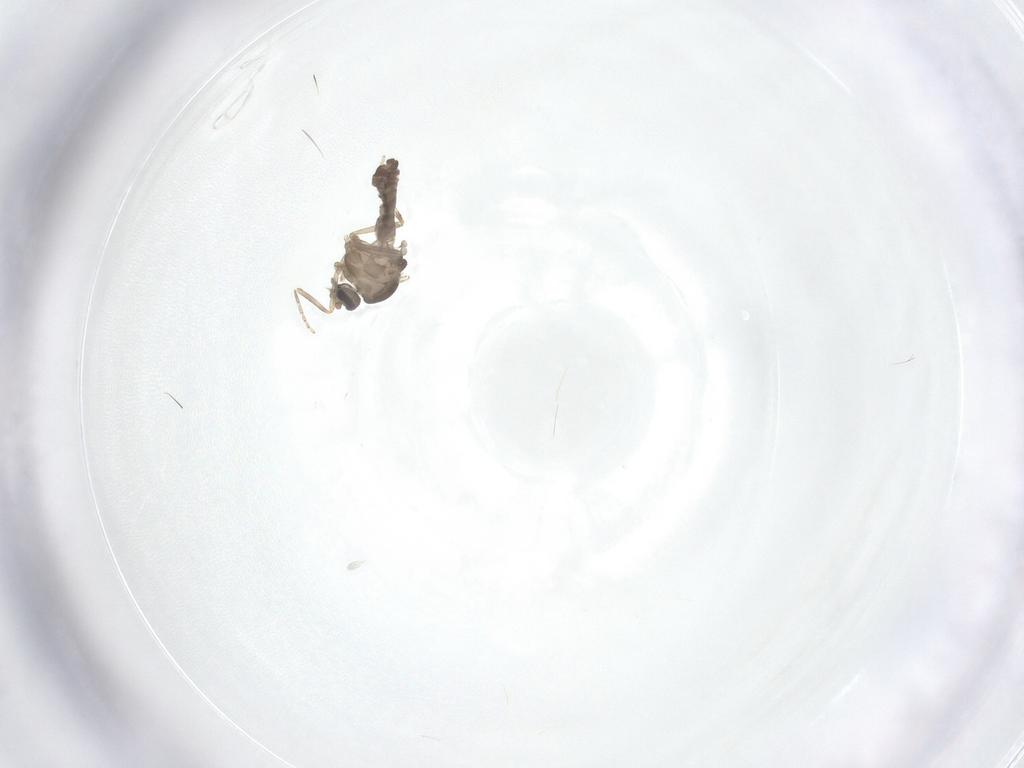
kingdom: Animalia
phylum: Arthropoda
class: Insecta
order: Diptera
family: Ceratopogonidae
